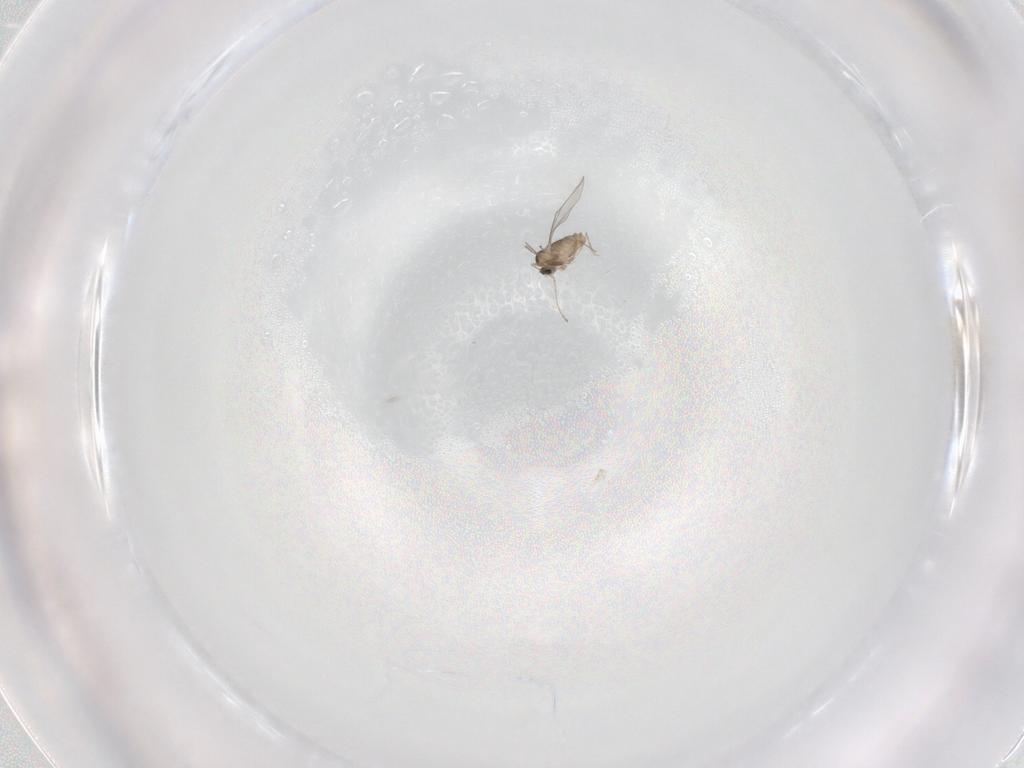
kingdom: Animalia
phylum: Arthropoda
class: Insecta
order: Diptera
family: Cecidomyiidae
